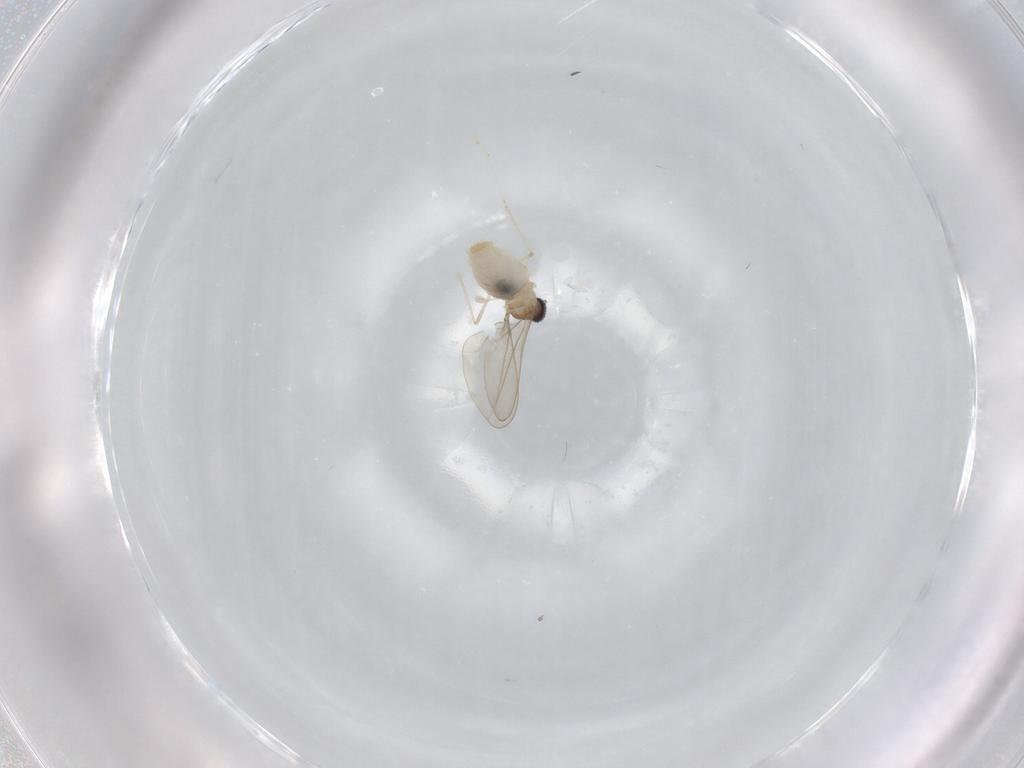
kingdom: Animalia
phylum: Arthropoda
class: Insecta
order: Diptera
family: Cecidomyiidae
